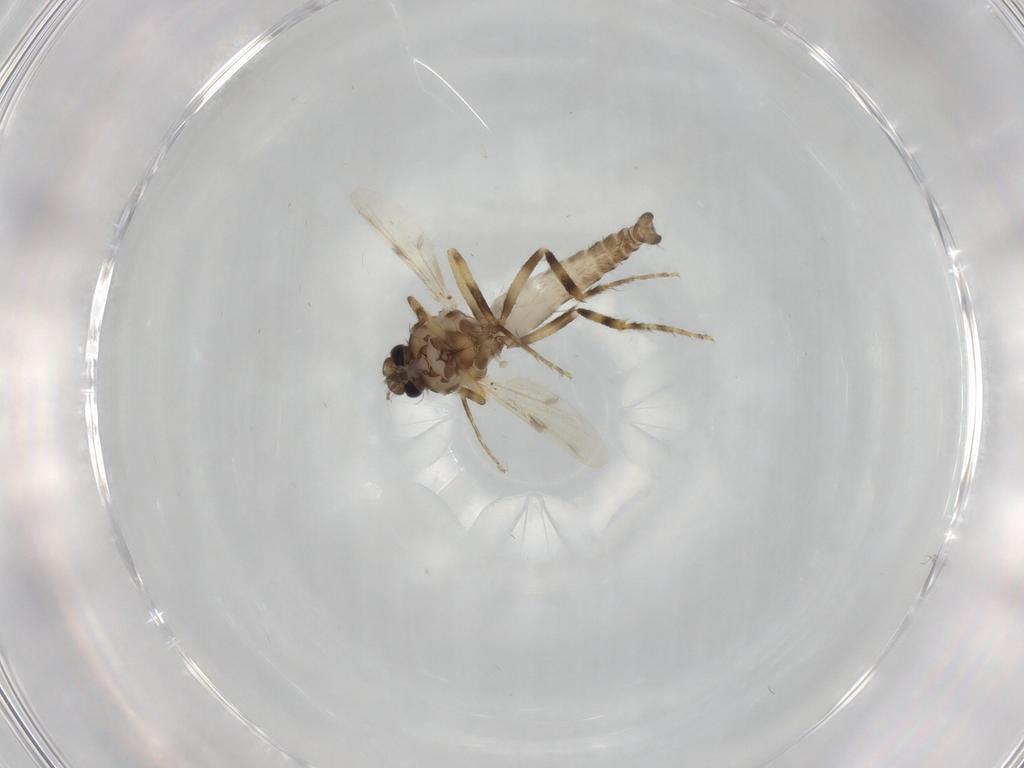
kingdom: Animalia
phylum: Arthropoda
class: Insecta
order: Diptera
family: Ceratopogonidae
